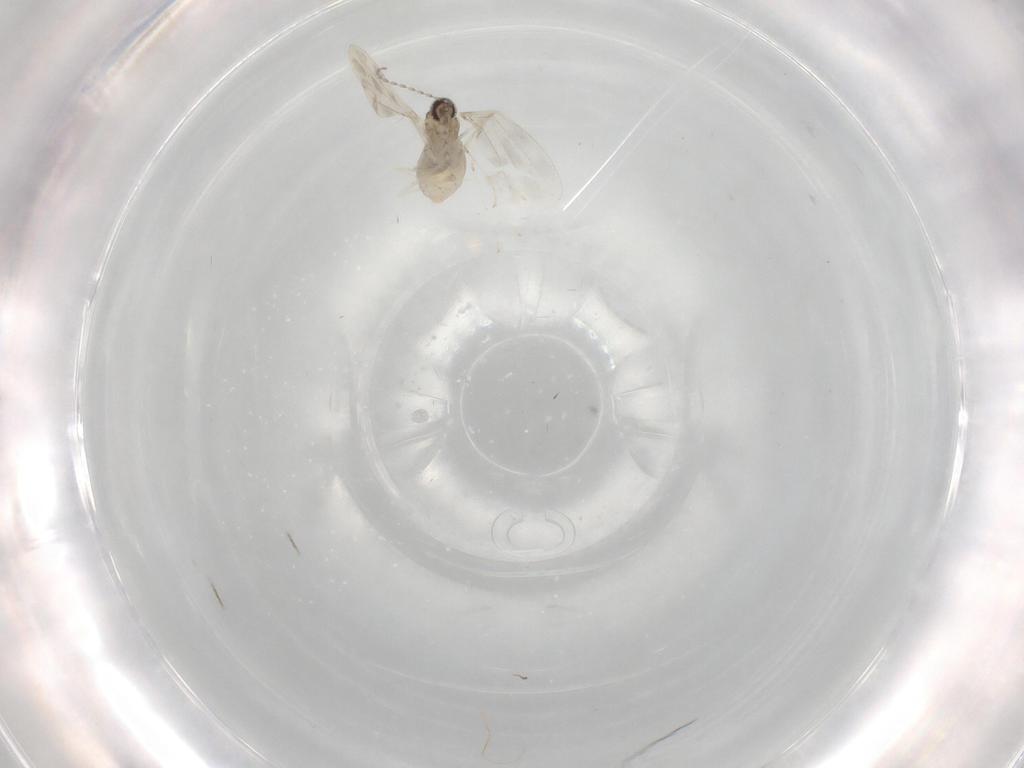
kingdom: Animalia
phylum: Arthropoda
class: Insecta
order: Diptera
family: Cecidomyiidae
